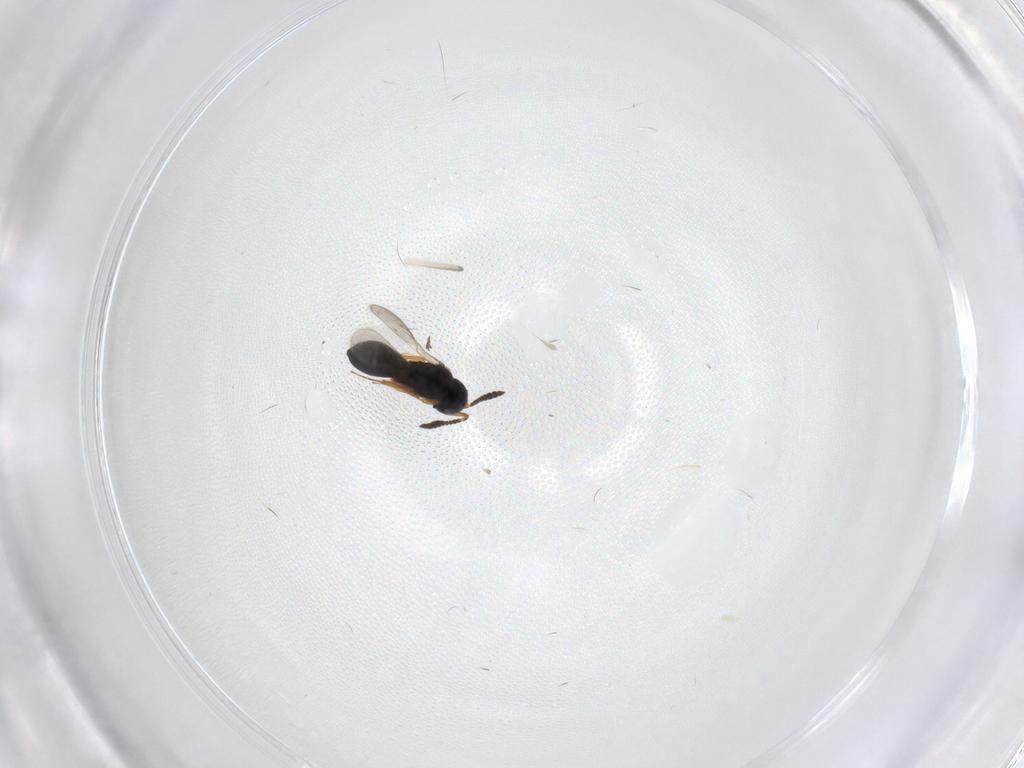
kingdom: Animalia
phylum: Arthropoda
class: Insecta
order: Hymenoptera
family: Scelionidae
